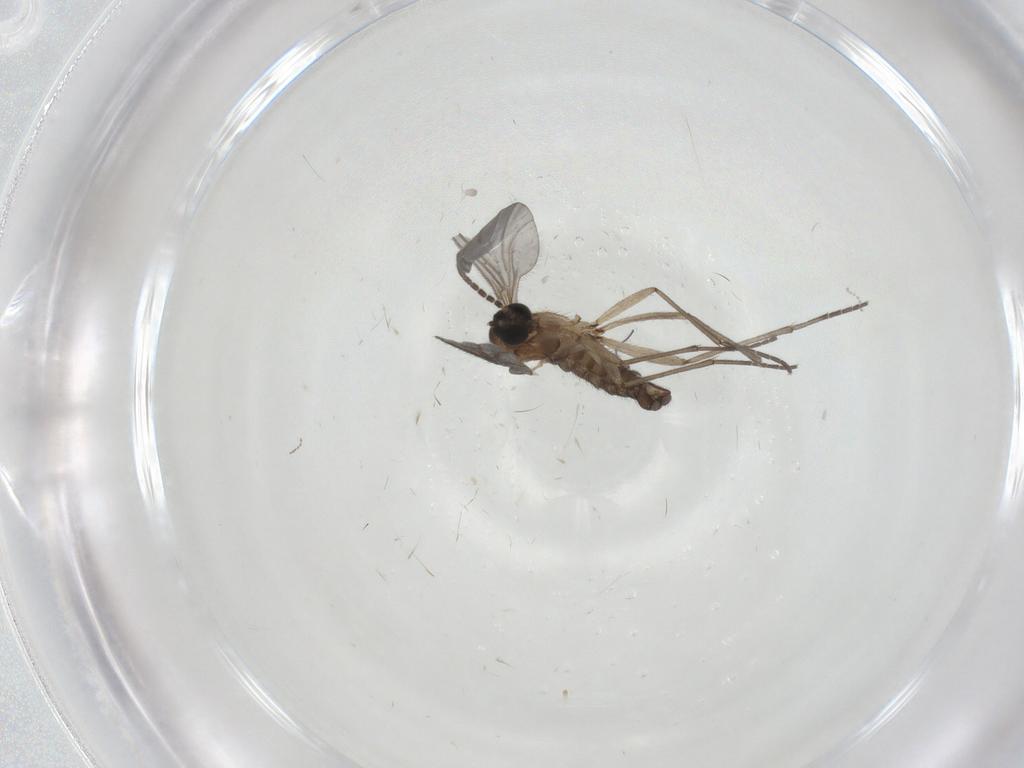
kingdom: Animalia
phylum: Arthropoda
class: Insecta
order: Diptera
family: Cecidomyiidae
